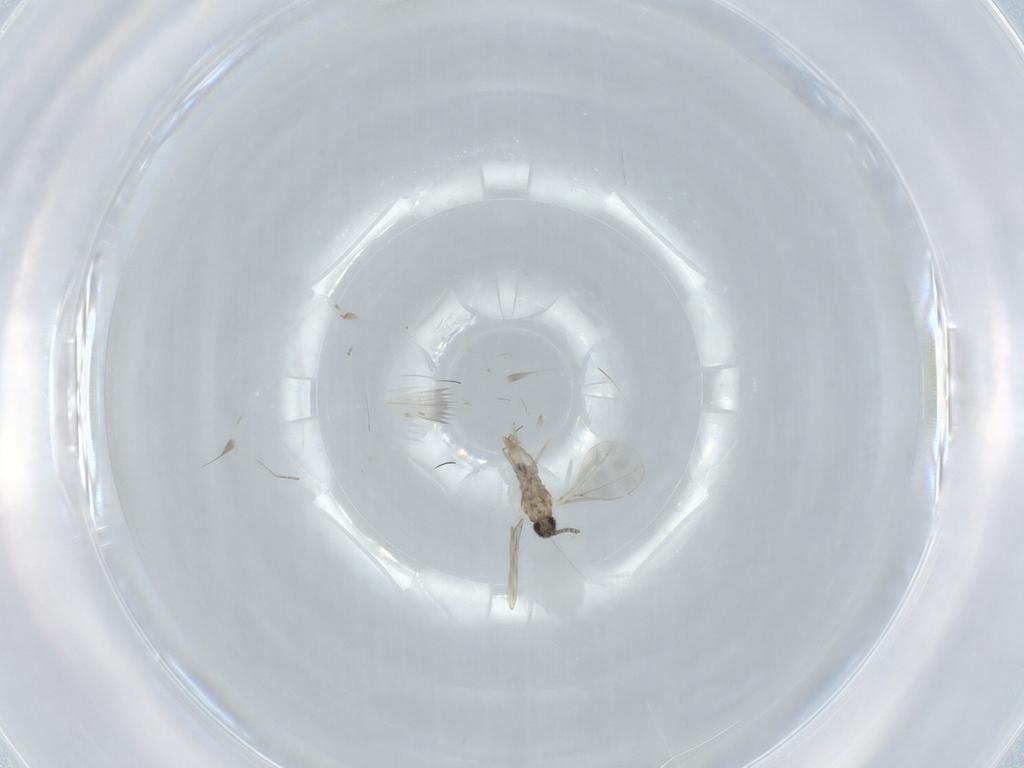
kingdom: Animalia
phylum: Arthropoda
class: Insecta
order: Diptera
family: Cecidomyiidae
